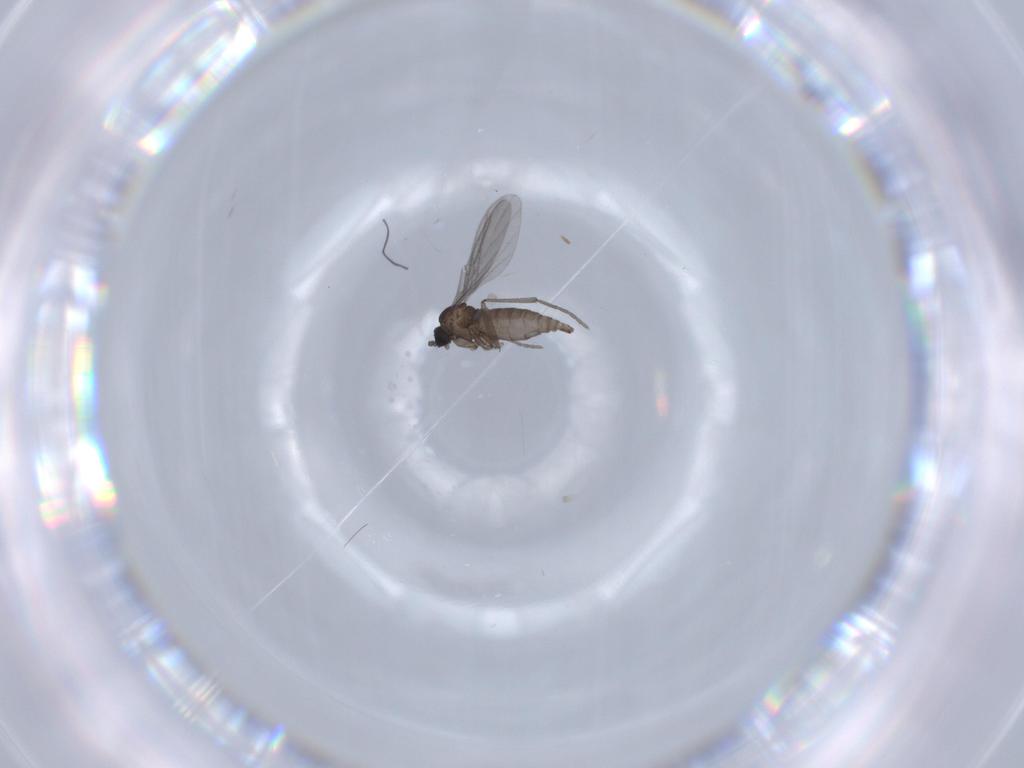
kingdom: Animalia
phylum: Arthropoda
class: Insecta
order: Diptera
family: Sciaridae
